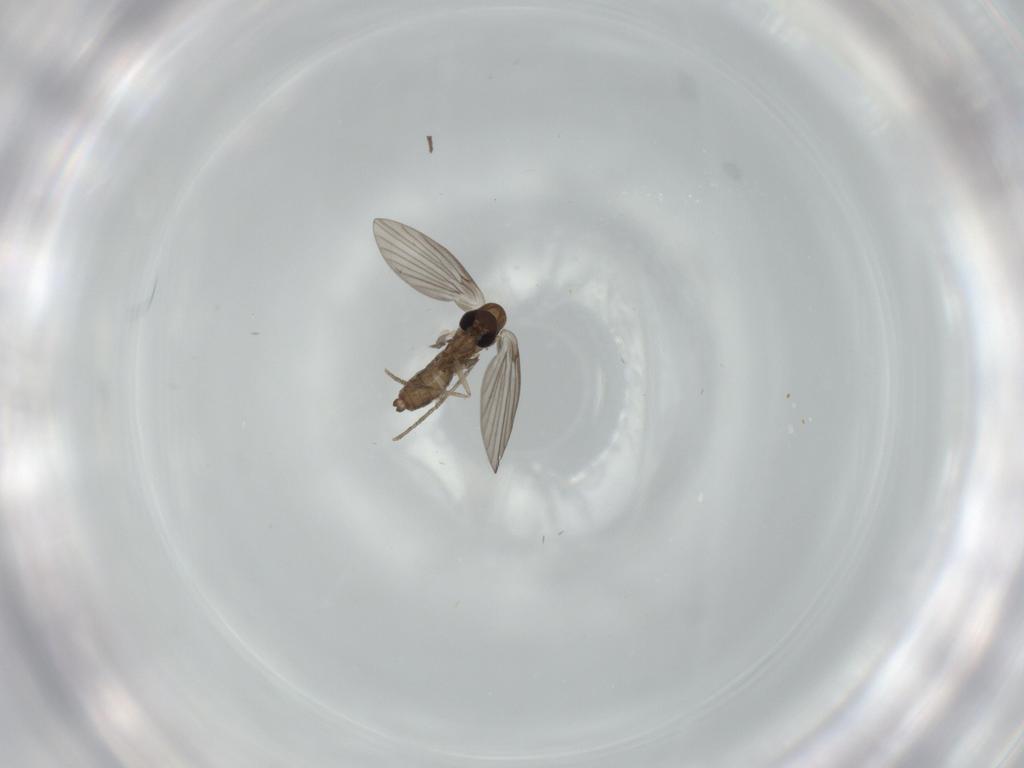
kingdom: Animalia
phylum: Arthropoda
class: Insecta
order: Diptera
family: Psychodidae
